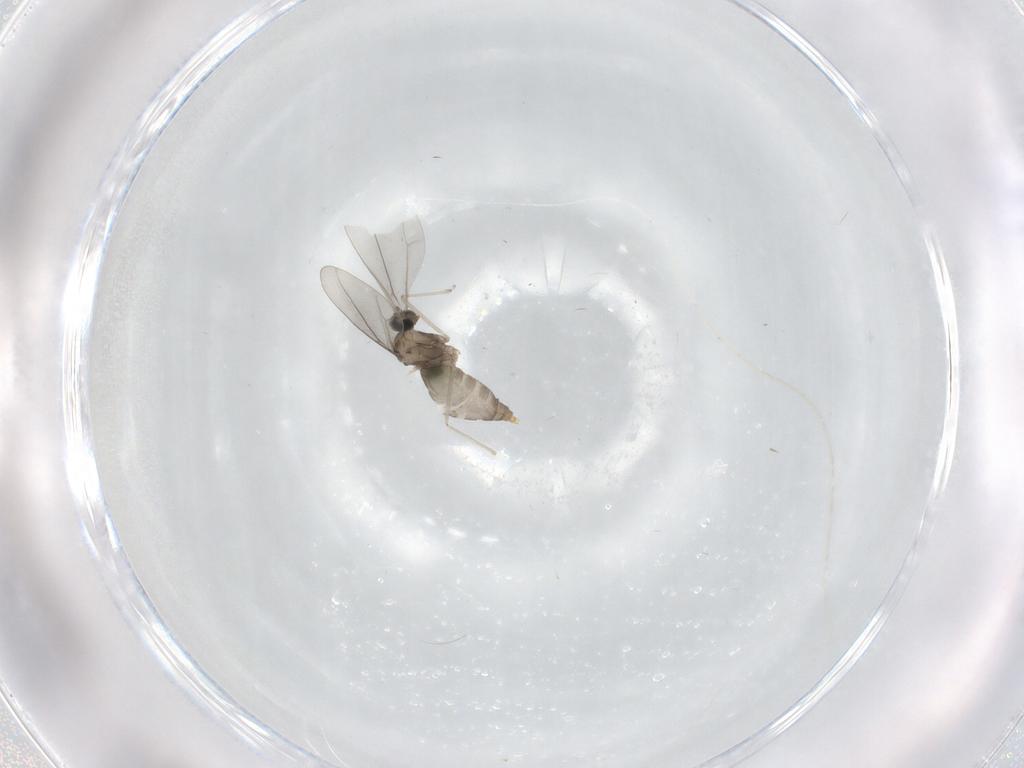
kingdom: Animalia
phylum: Arthropoda
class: Insecta
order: Diptera
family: Cecidomyiidae
